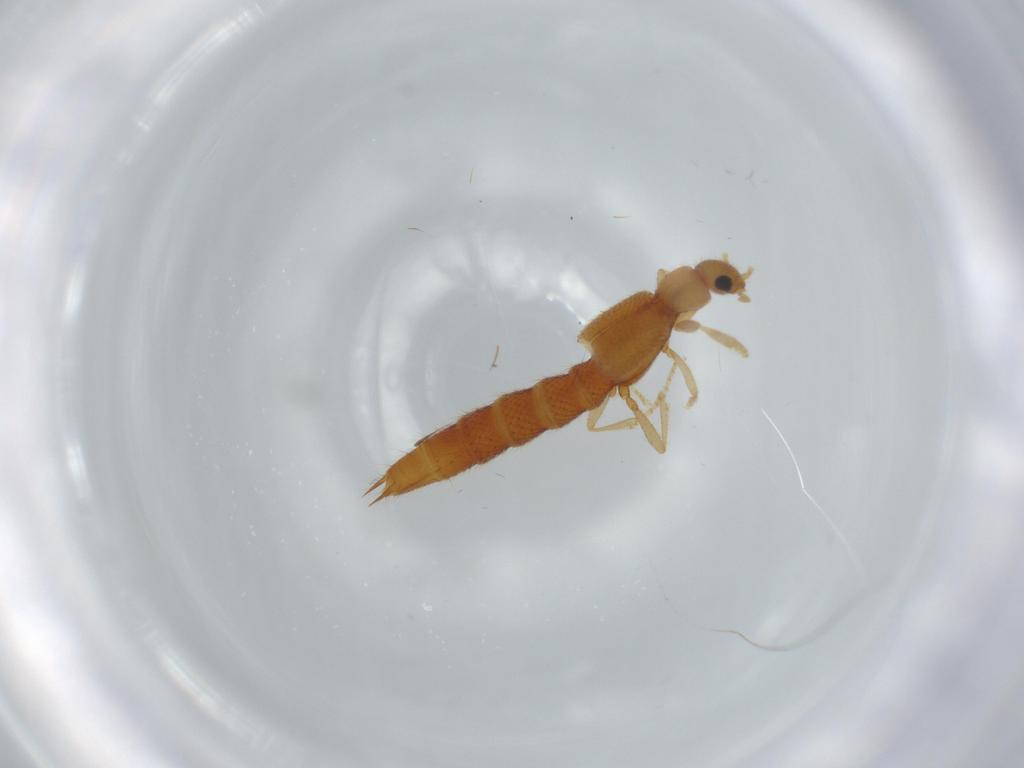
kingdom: Animalia
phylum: Arthropoda
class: Insecta
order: Coleoptera
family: Staphylinidae
